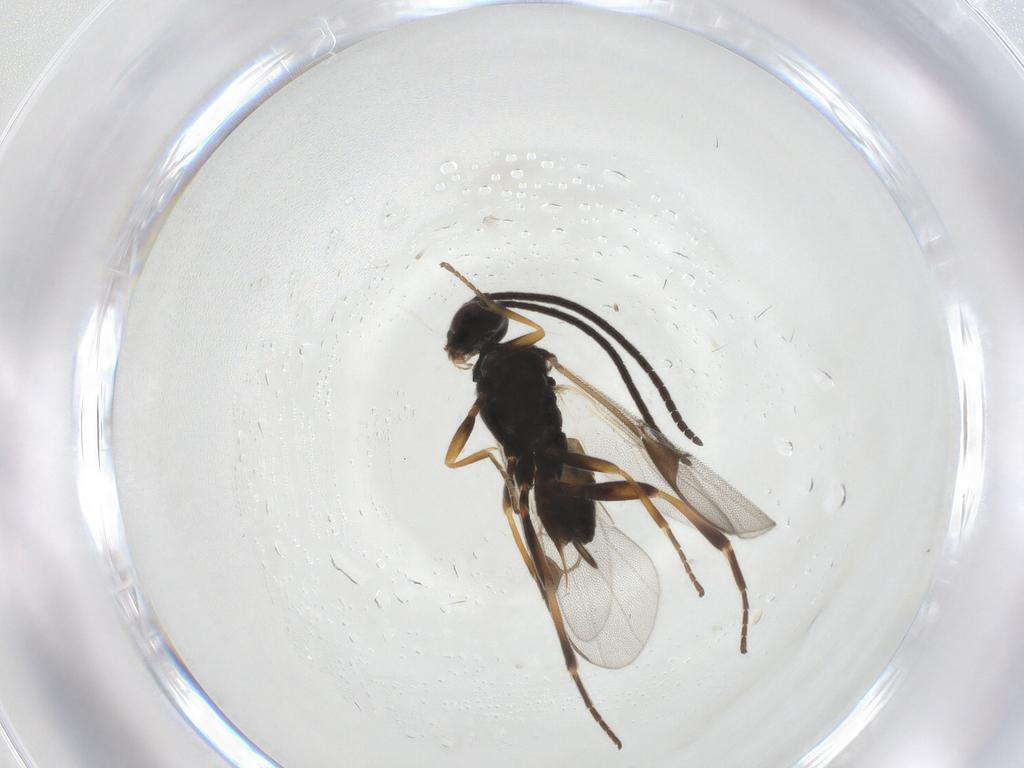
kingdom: Animalia
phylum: Arthropoda
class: Insecta
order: Hymenoptera
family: Braconidae
